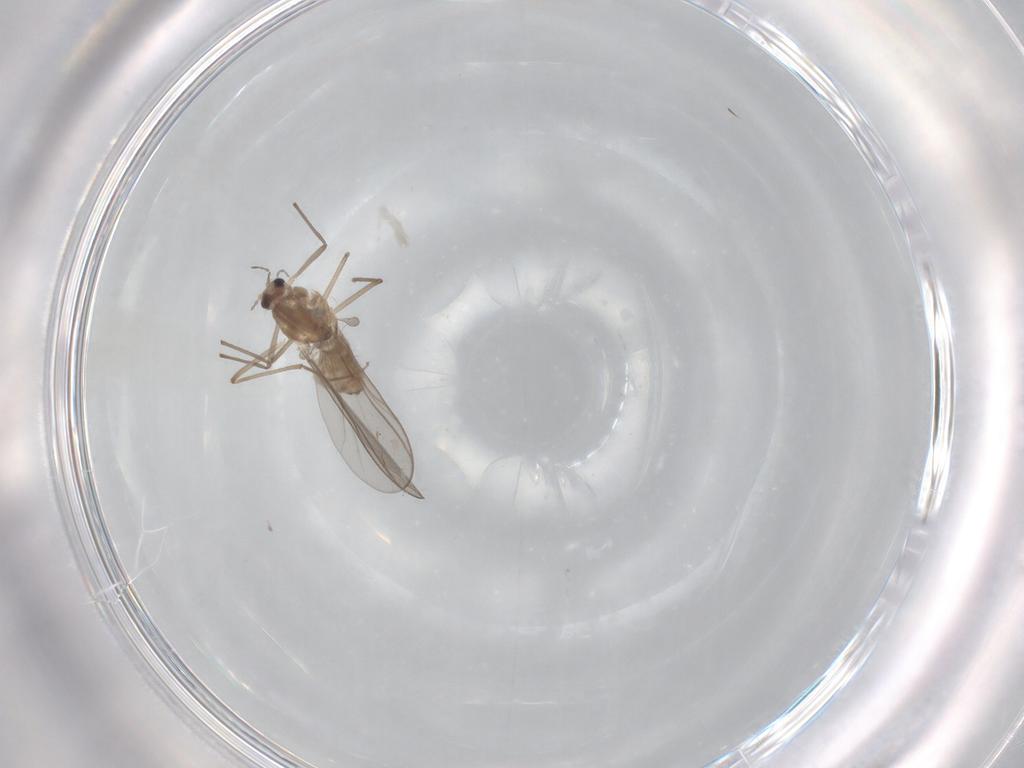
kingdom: Animalia
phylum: Arthropoda
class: Insecta
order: Diptera
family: Chironomidae
